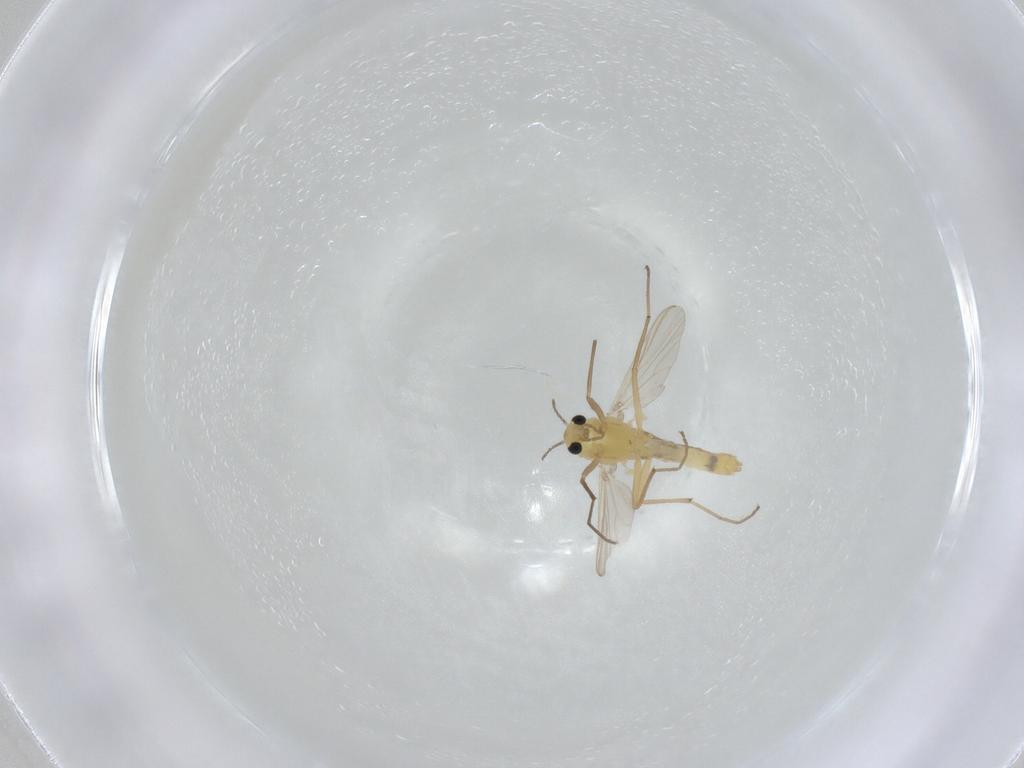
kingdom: Animalia
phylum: Arthropoda
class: Insecta
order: Diptera
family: Chironomidae
